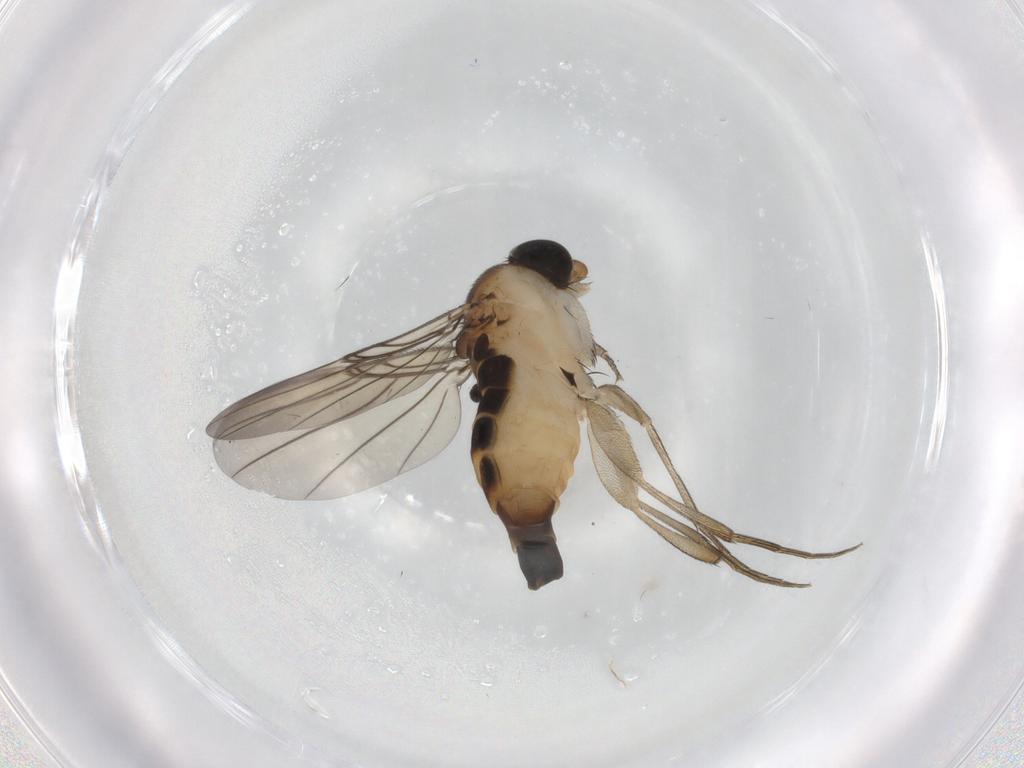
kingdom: Animalia
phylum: Arthropoda
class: Insecta
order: Diptera
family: Phoridae
